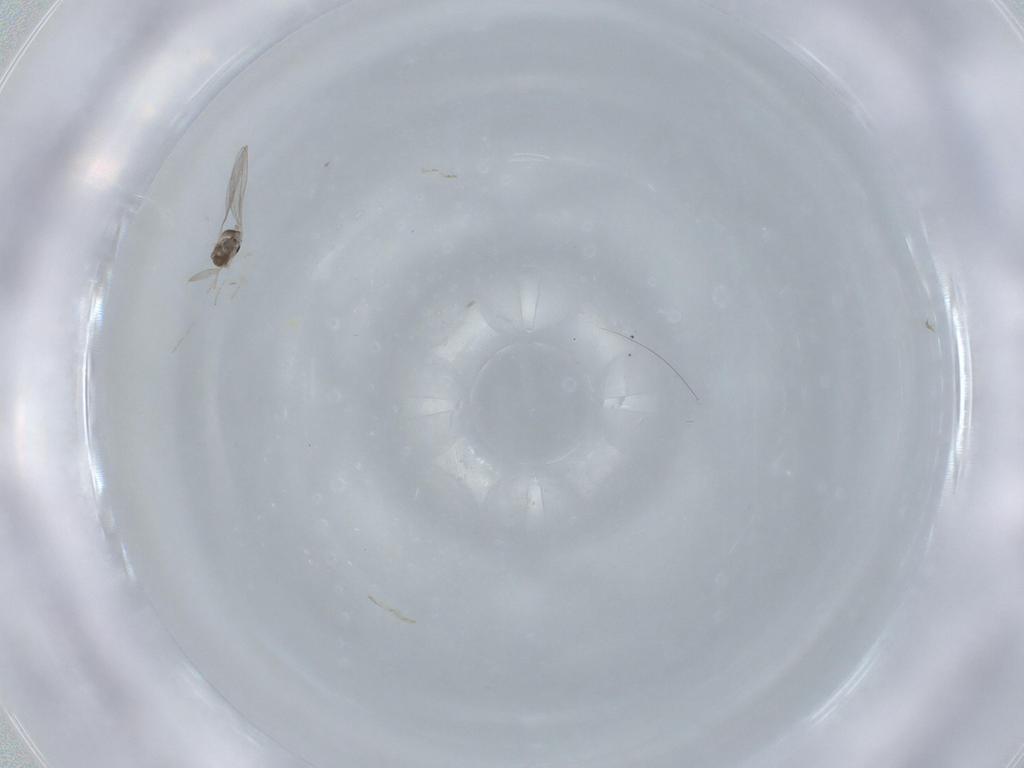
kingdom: Animalia
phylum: Arthropoda
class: Insecta
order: Diptera
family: Cecidomyiidae
